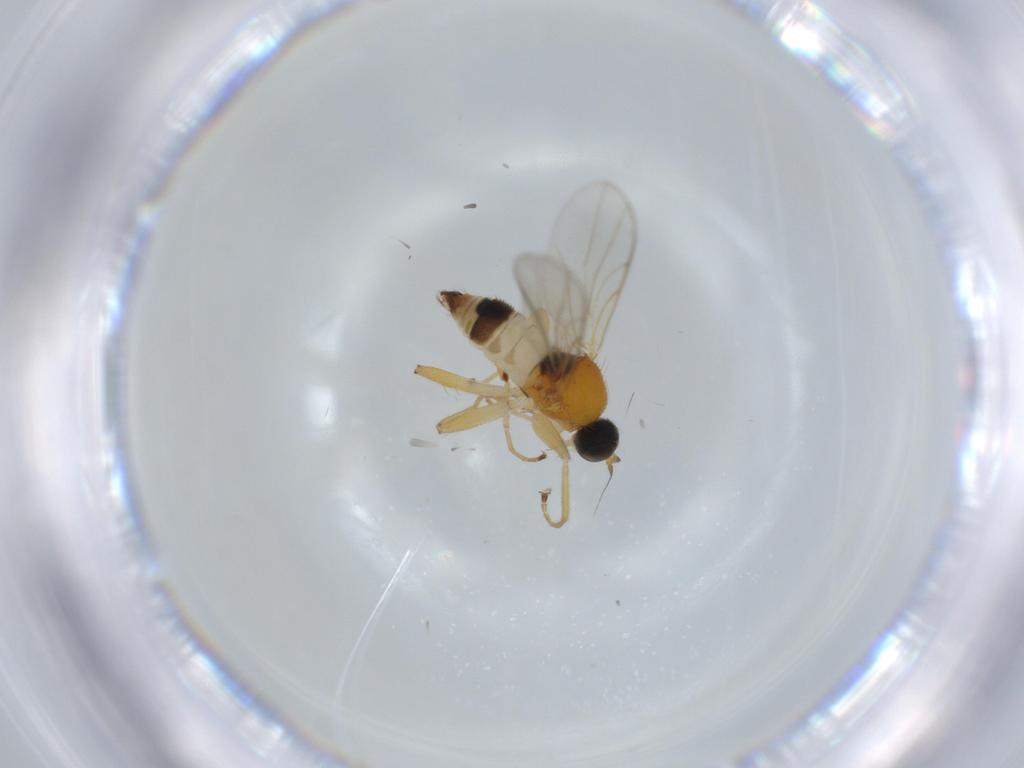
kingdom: Animalia
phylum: Arthropoda
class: Insecta
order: Diptera
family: Hybotidae
